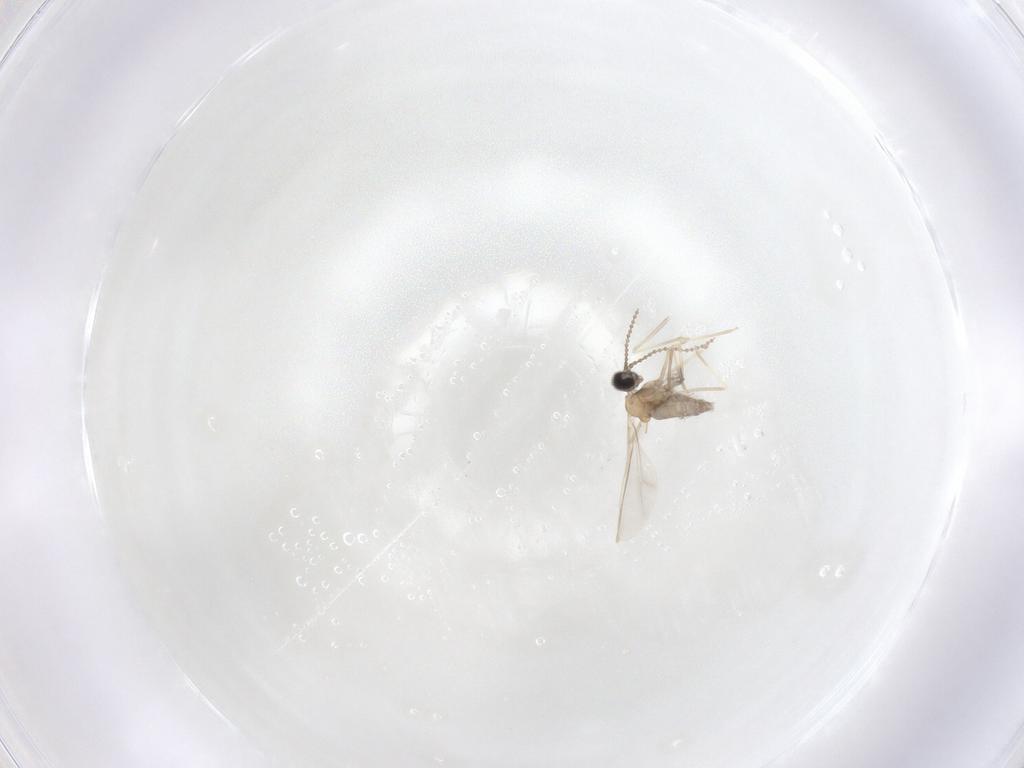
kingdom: Animalia
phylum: Arthropoda
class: Insecta
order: Diptera
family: Cecidomyiidae
